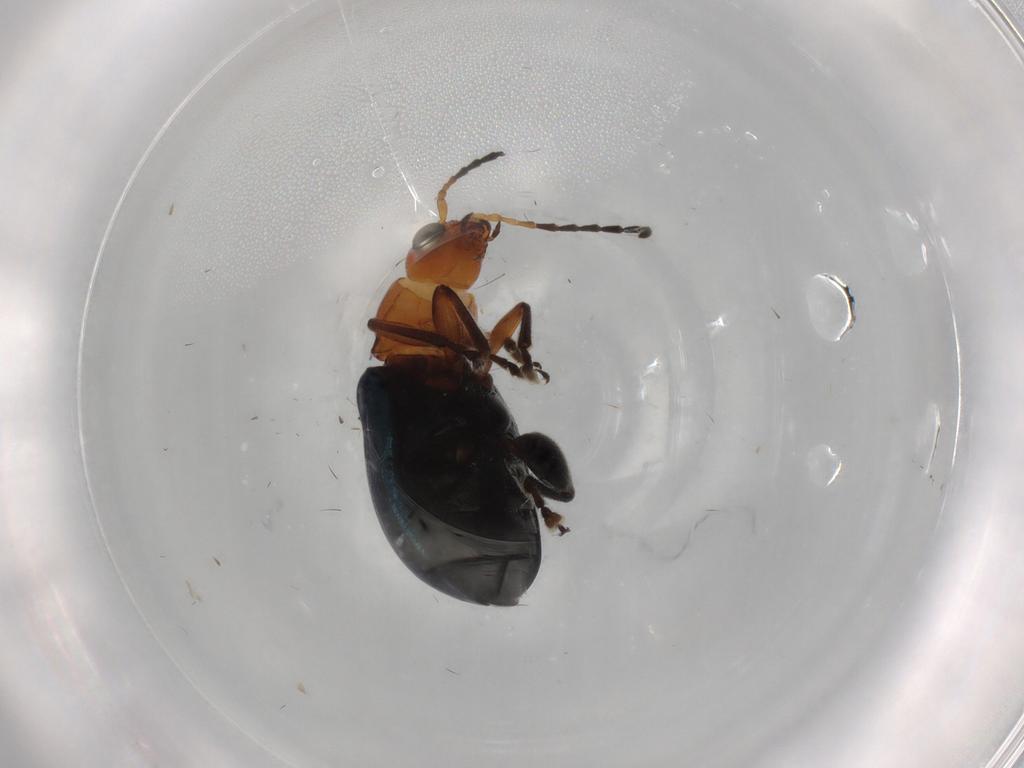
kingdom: Animalia
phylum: Arthropoda
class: Insecta
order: Coleoptera
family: Chrysomelidae
